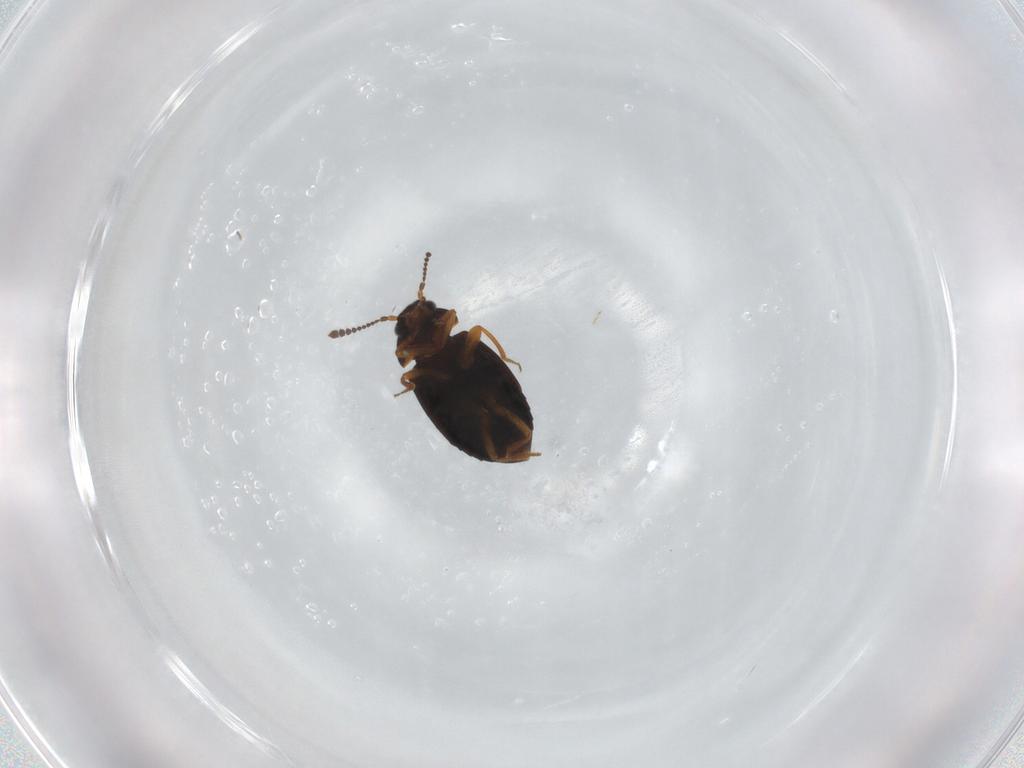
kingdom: Animalia
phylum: Arthropoda
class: Insecta
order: Coleoptera
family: Staphylinidae
